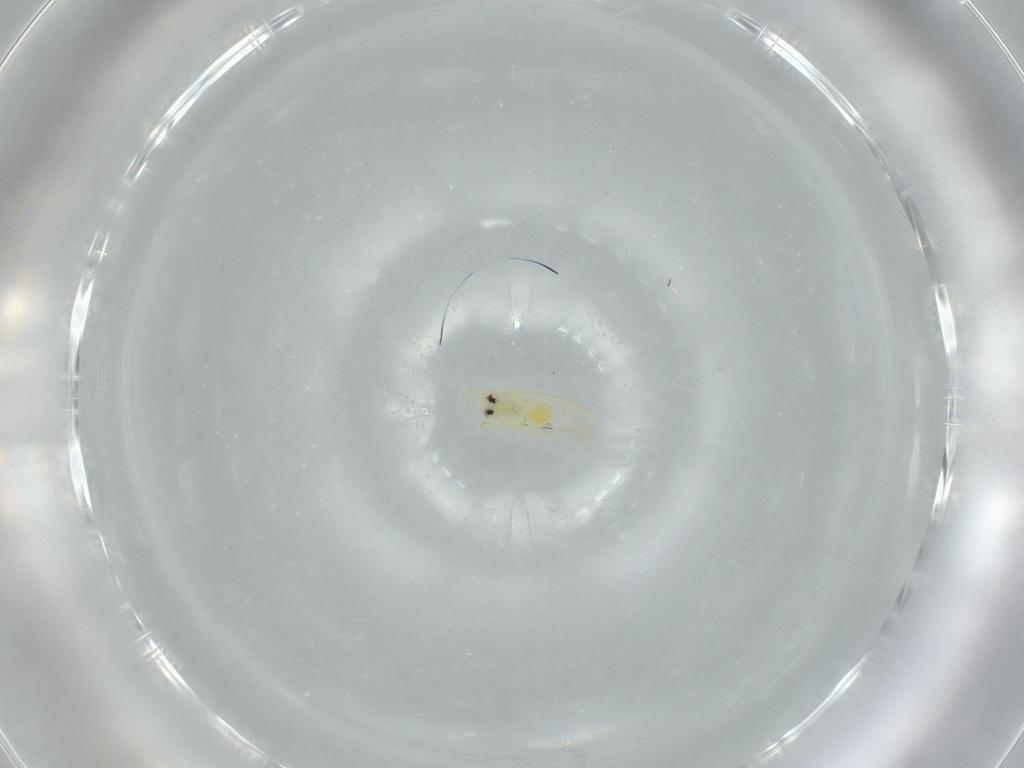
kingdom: Animalia
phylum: Arthropoda
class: Insecta
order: Hemiptera
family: Aleyrodidae
